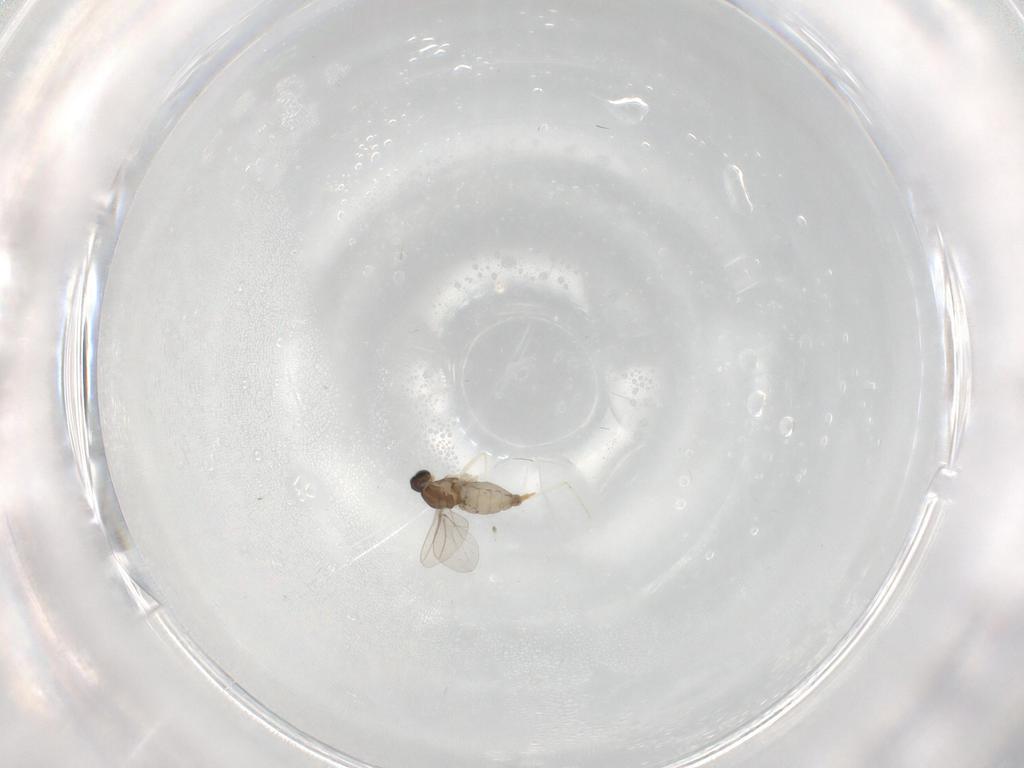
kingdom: Animalia
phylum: Arthropoda
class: Insecta
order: Diptera
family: Cecidomyiidae
